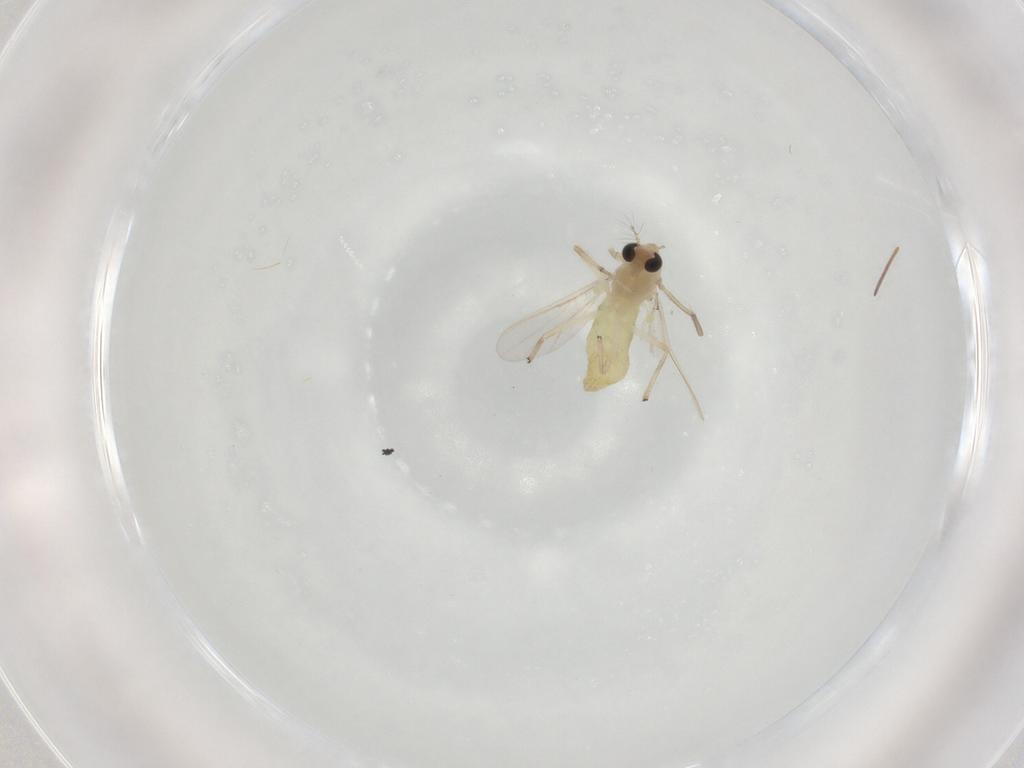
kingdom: Animalia
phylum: Arthropoda
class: Insecta
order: Diptera
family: Ceratopogonidae
